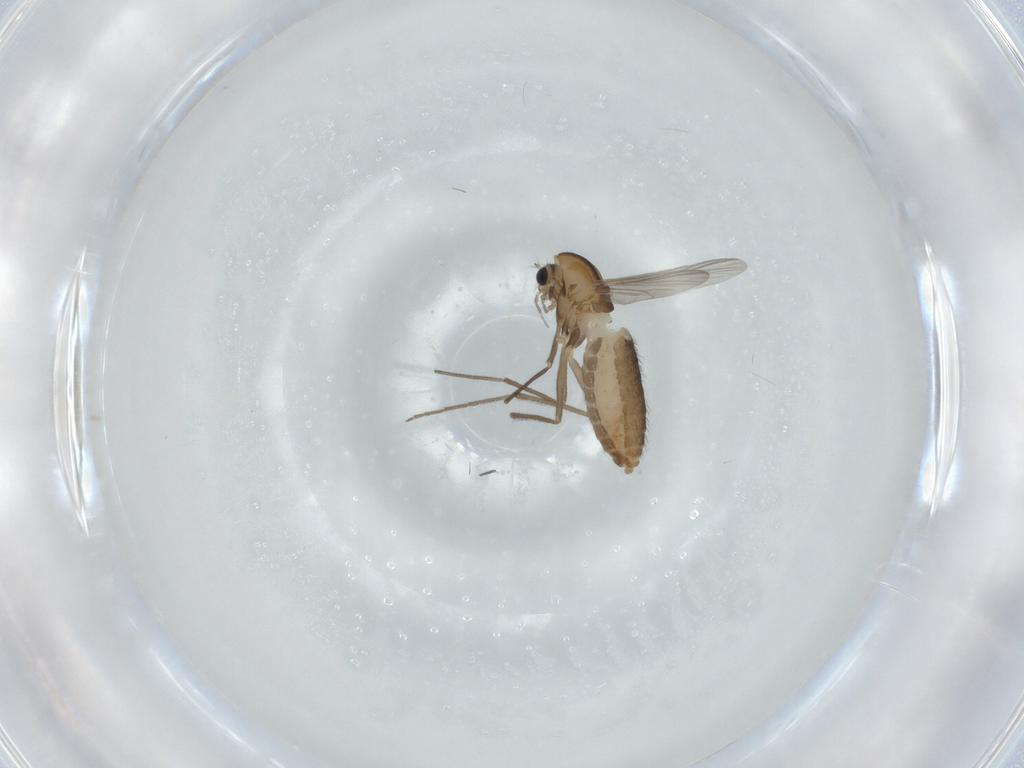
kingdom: Animalia
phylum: Arthropoda
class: Insecta
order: Diptera
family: Chironomidae
